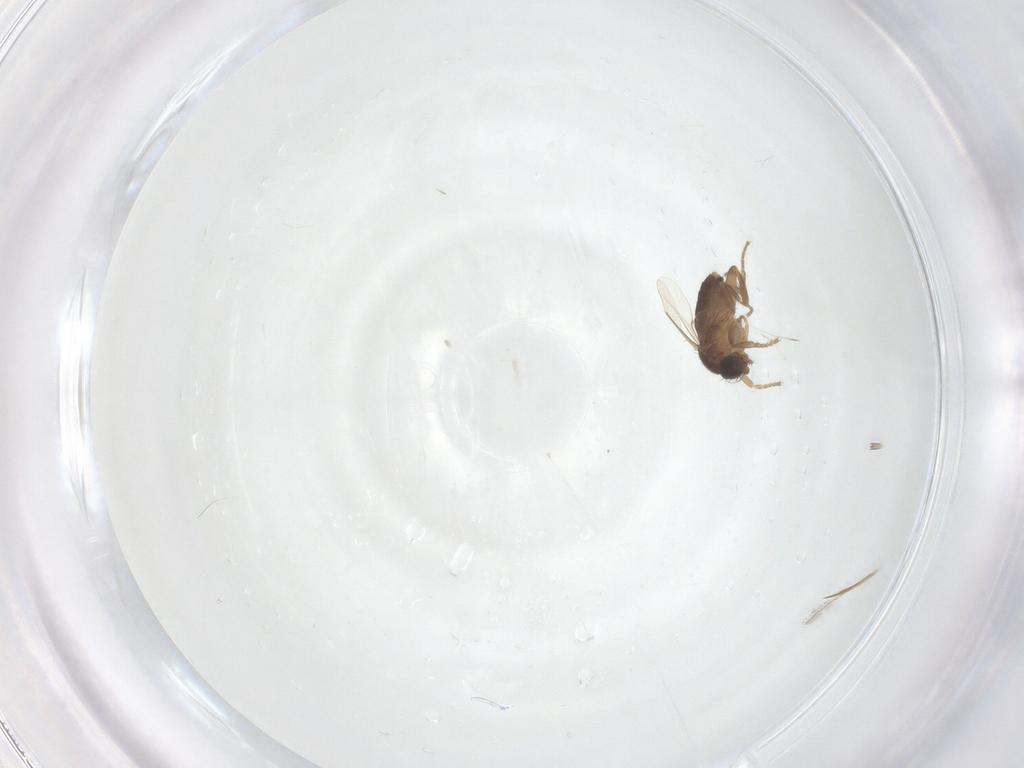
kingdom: Animalia
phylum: Arthropoda
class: Insecta
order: Diptera
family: Phoridae
